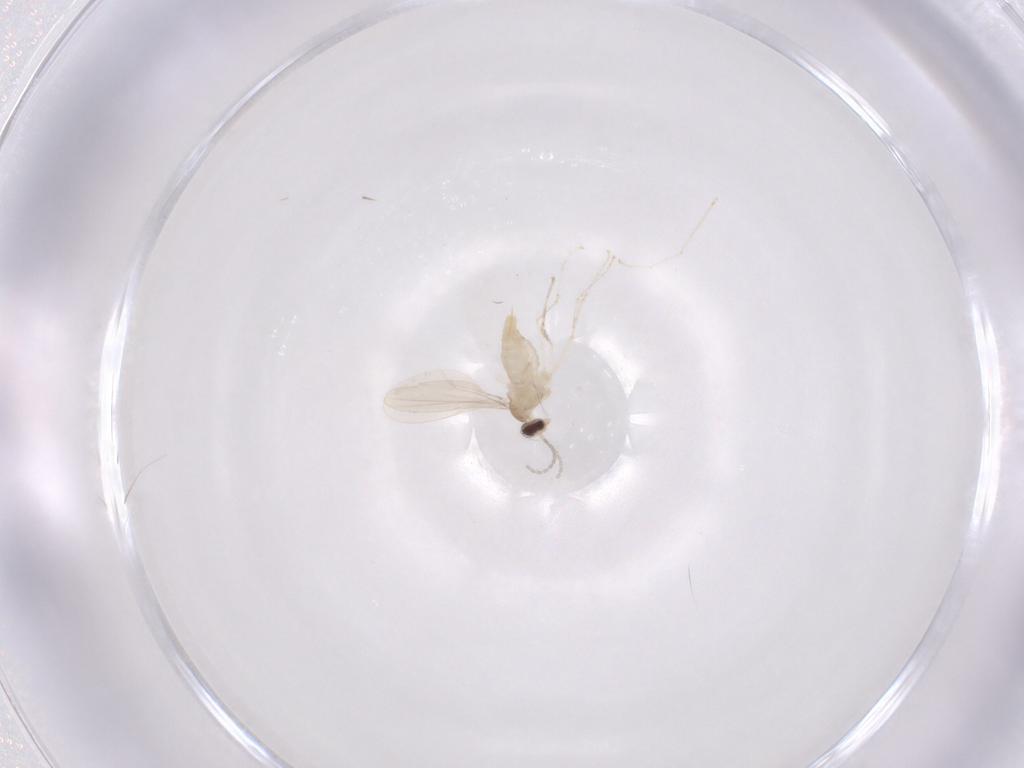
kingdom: Animalia
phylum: Arthropoda
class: Insecta
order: Diptera
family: Cecidomyiidae
